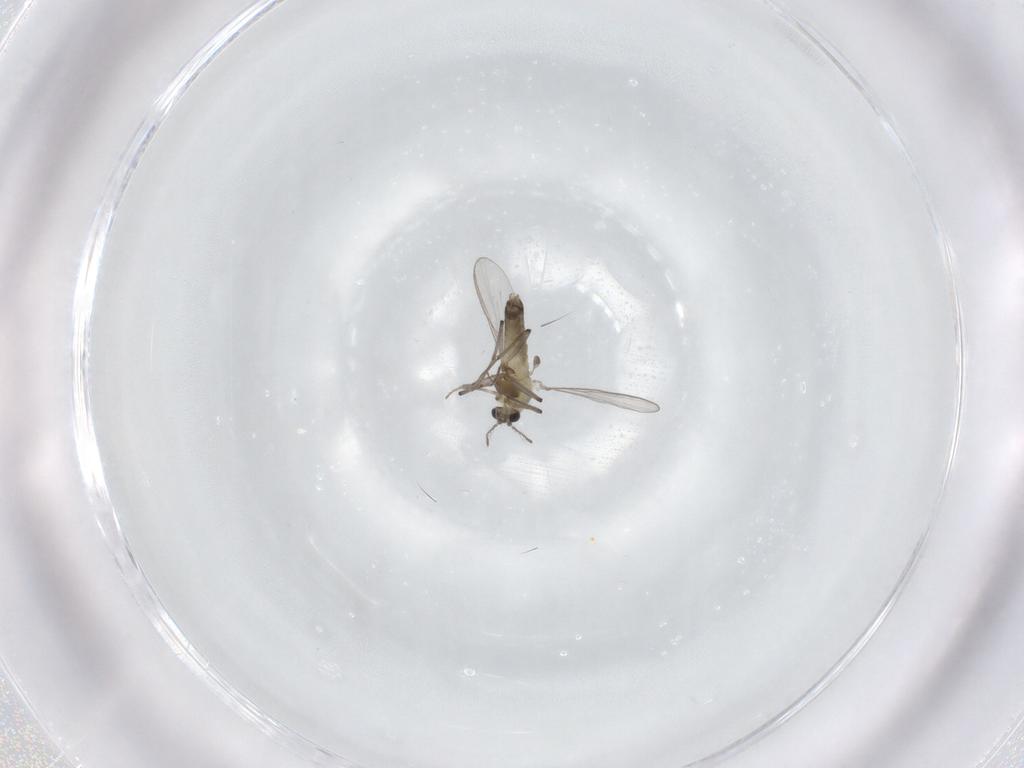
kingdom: Animalia
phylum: Arthropoda
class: Insecta
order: Diptera
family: Chironomidae
